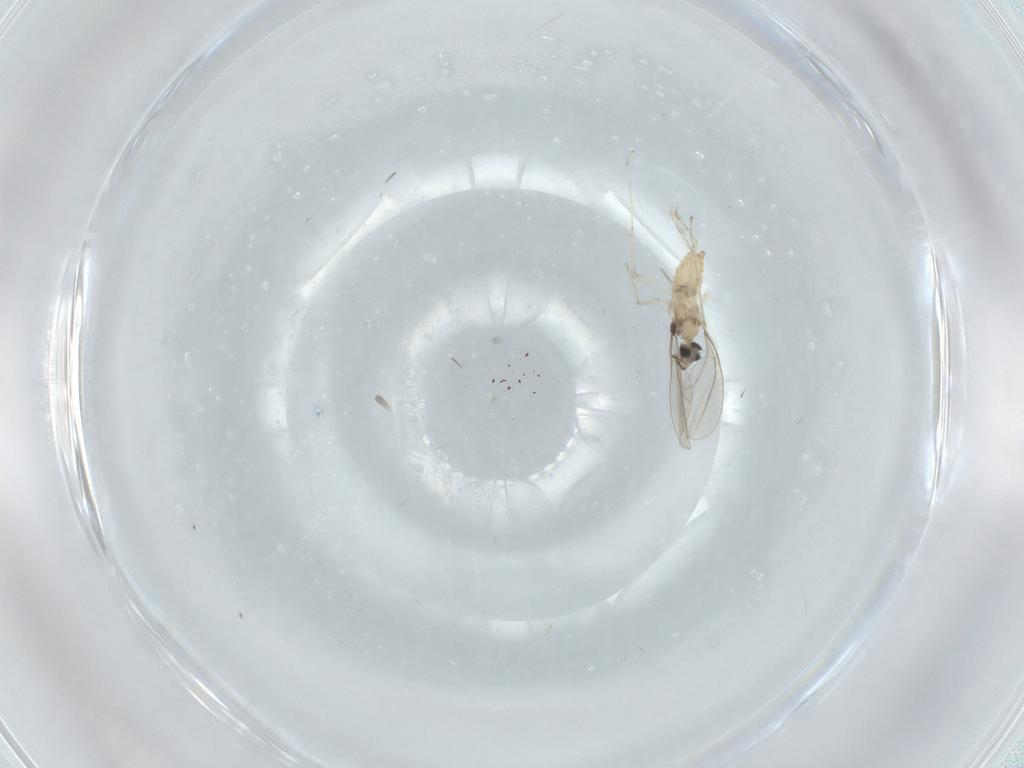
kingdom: Animalia
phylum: Arthropoda
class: Insecta
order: Diptera
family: Cecidomyiidae
